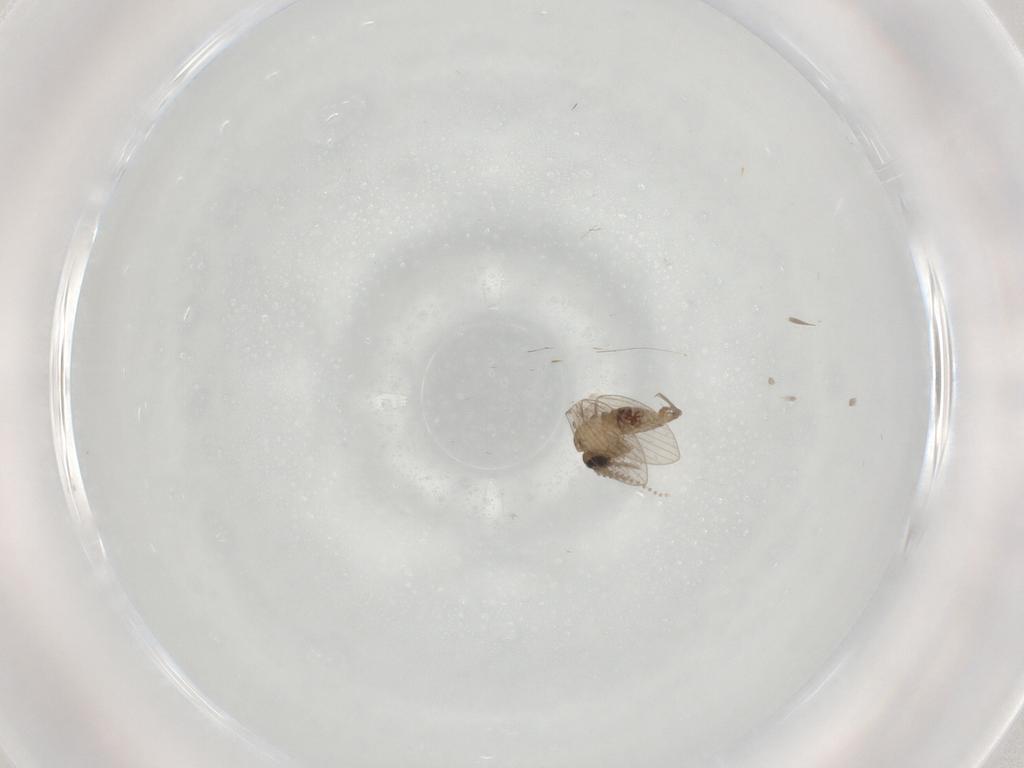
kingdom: Animalia
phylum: Arthropoda
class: Insecta
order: Diptera
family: Psychodidae
